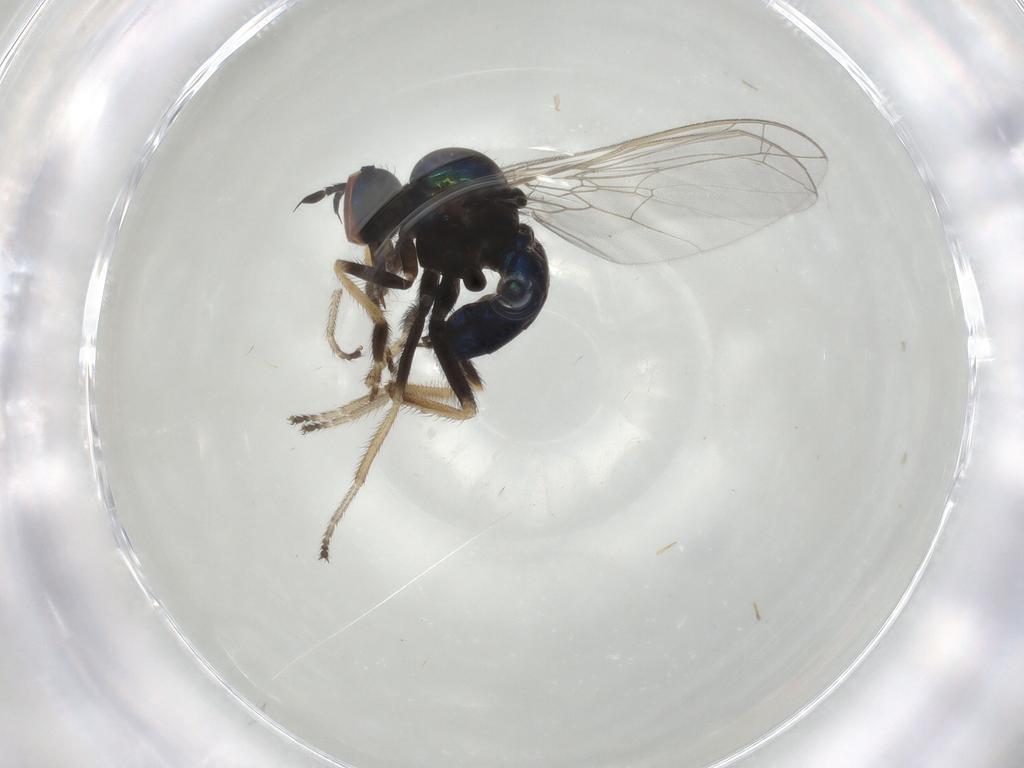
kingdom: Animalia
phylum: Arthropoda
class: Insecta
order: Diptera
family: Empididae
